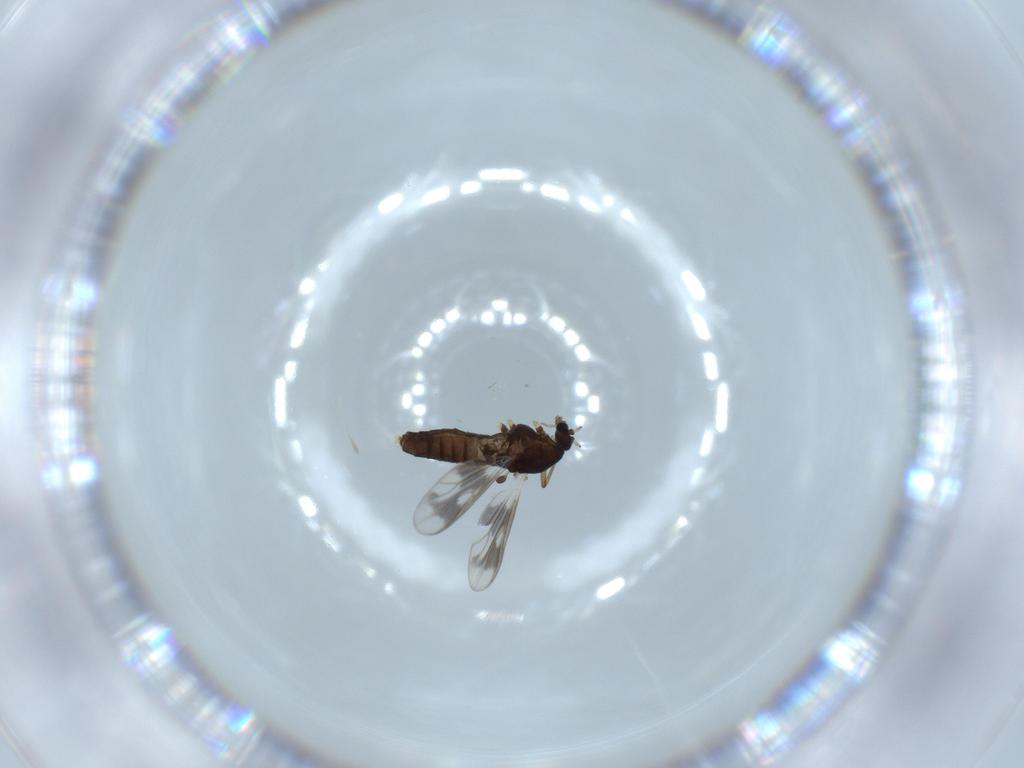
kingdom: Animalia
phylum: Arthropoda
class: Insecta
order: Diptera
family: Chironomidae
